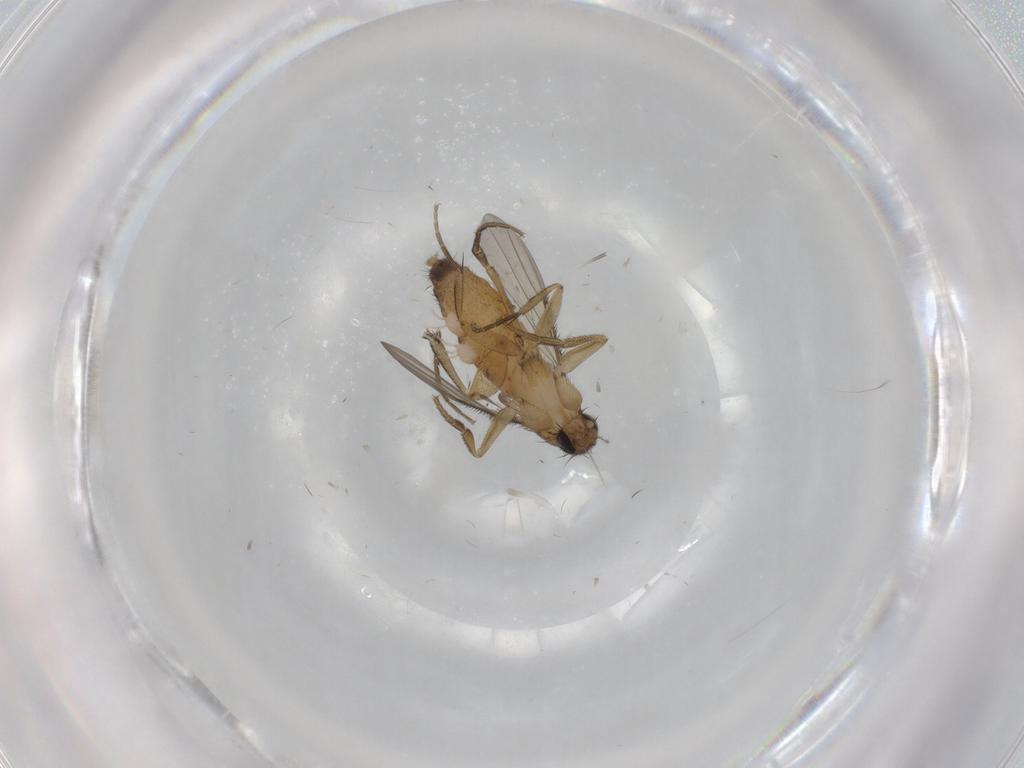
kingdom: Animalia
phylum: Arthropoda
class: Insecta
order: Diptera
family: Phoridae
